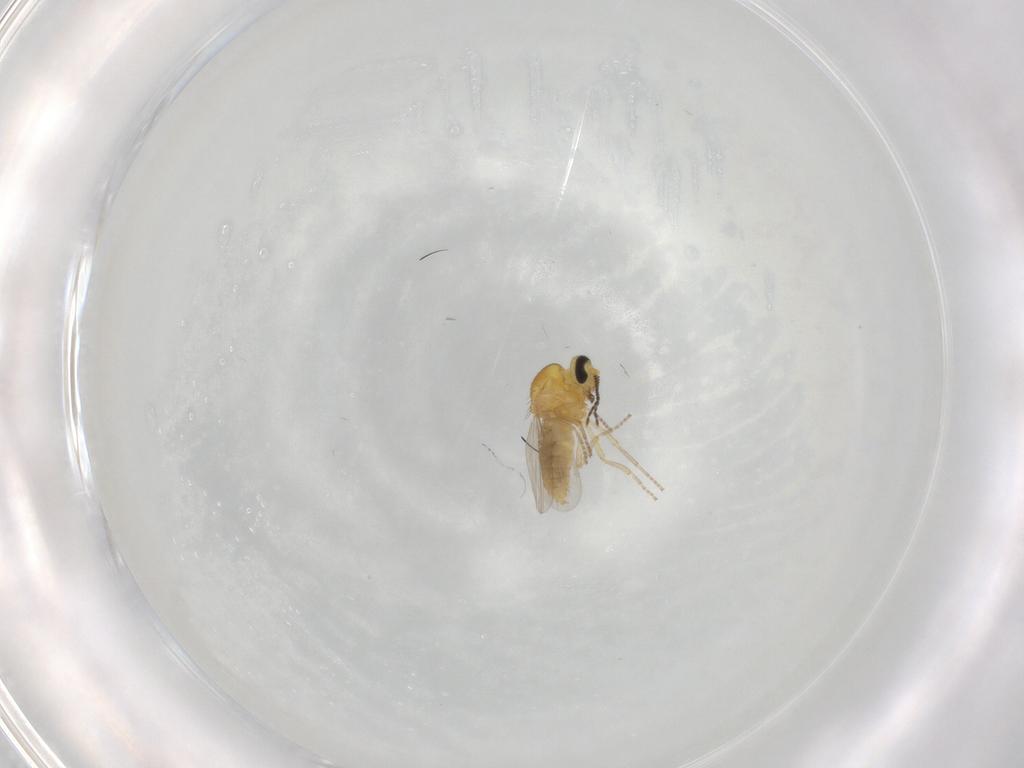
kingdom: Animalia
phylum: Arthropoda
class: Insecta
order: Diptera
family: Ceratopogonidae
